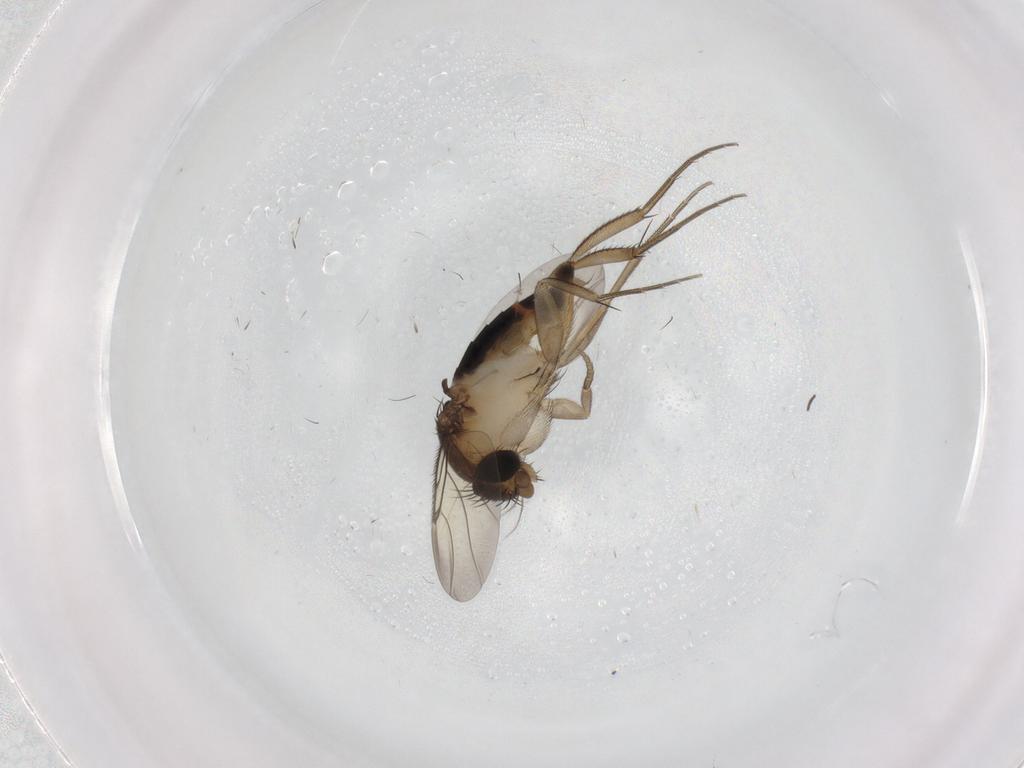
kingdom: Animalia
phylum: Arthropoda
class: Insecta
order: Diptera
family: Phoridae
